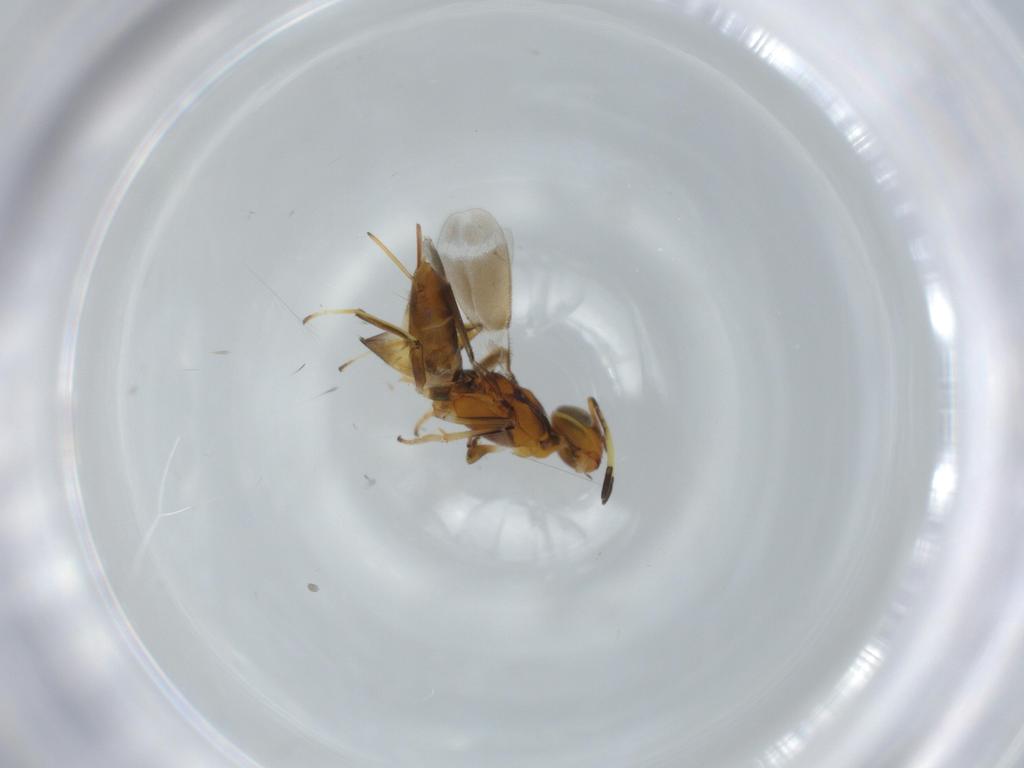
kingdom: Animalia
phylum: Arthropoda
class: Insecta
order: Hymenoptera
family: Eupelmidae
